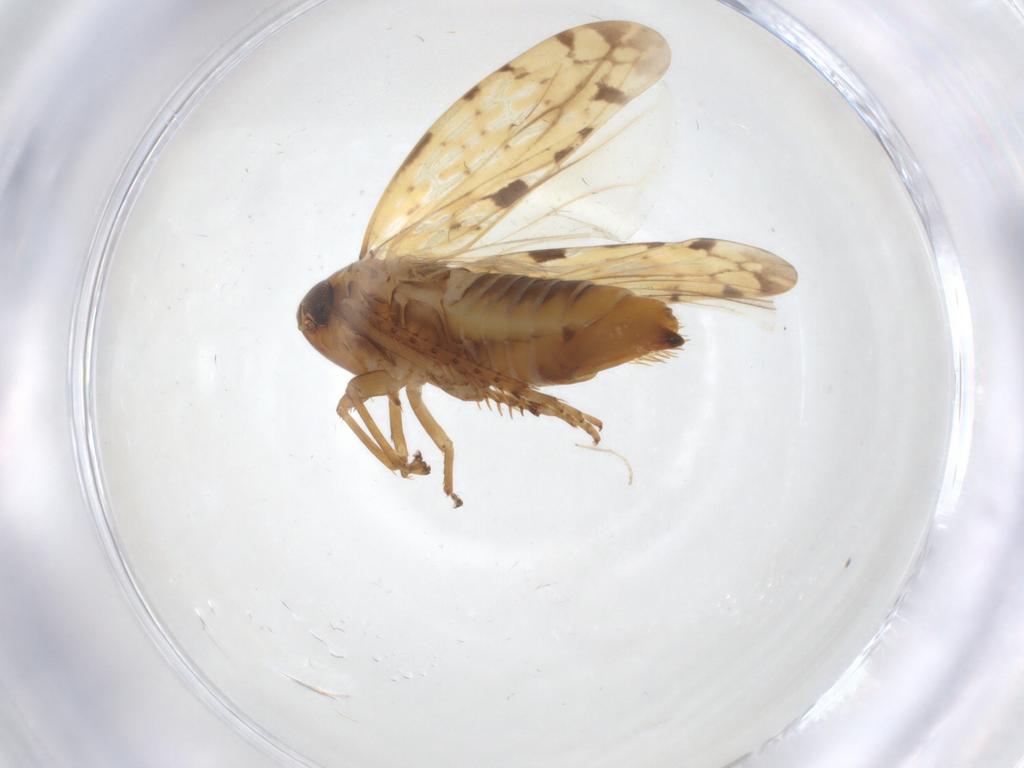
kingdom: Animalia
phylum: Arthropoda
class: Insecta
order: Hemiptera
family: Cicadellidae
